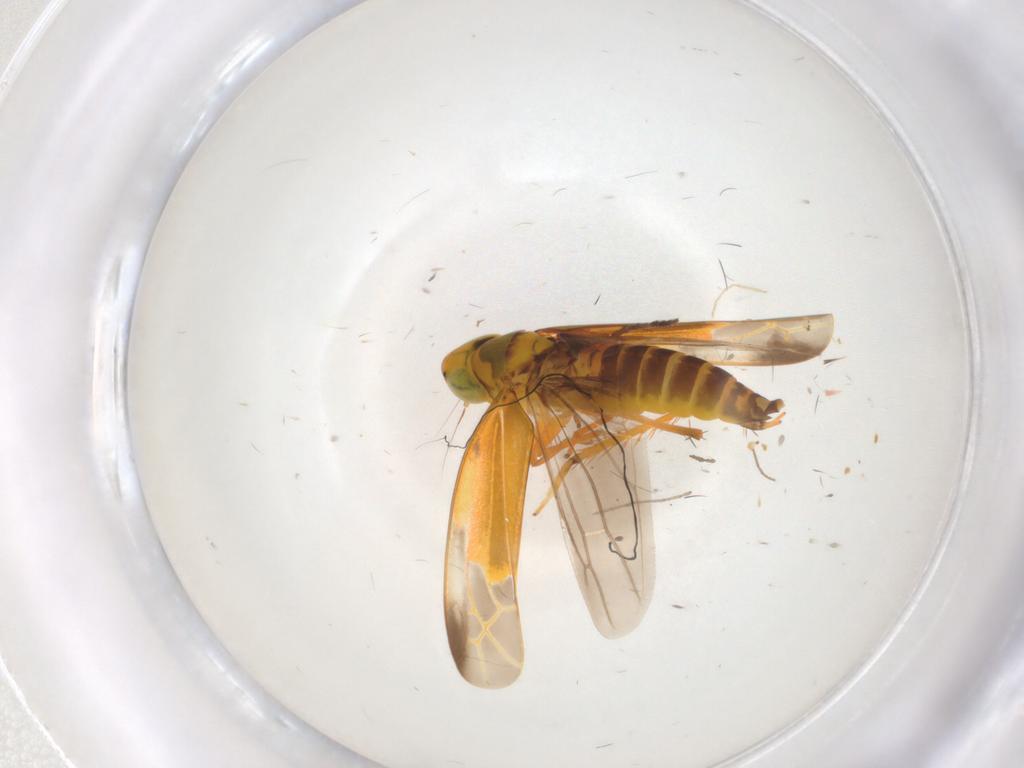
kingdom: Animalia
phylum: Arthropoda
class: Insecta
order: Hemiptera
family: Cicadellidae
